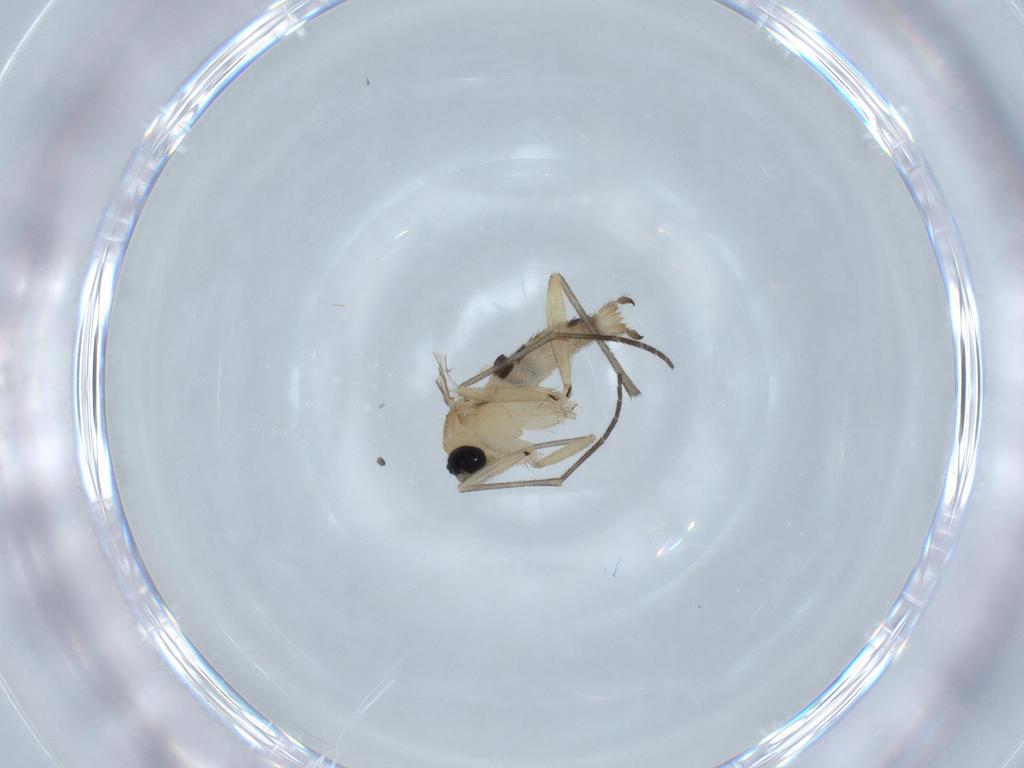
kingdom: Animalia
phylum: Arthropoda
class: Insecta
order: Diptera
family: Sciaridae
